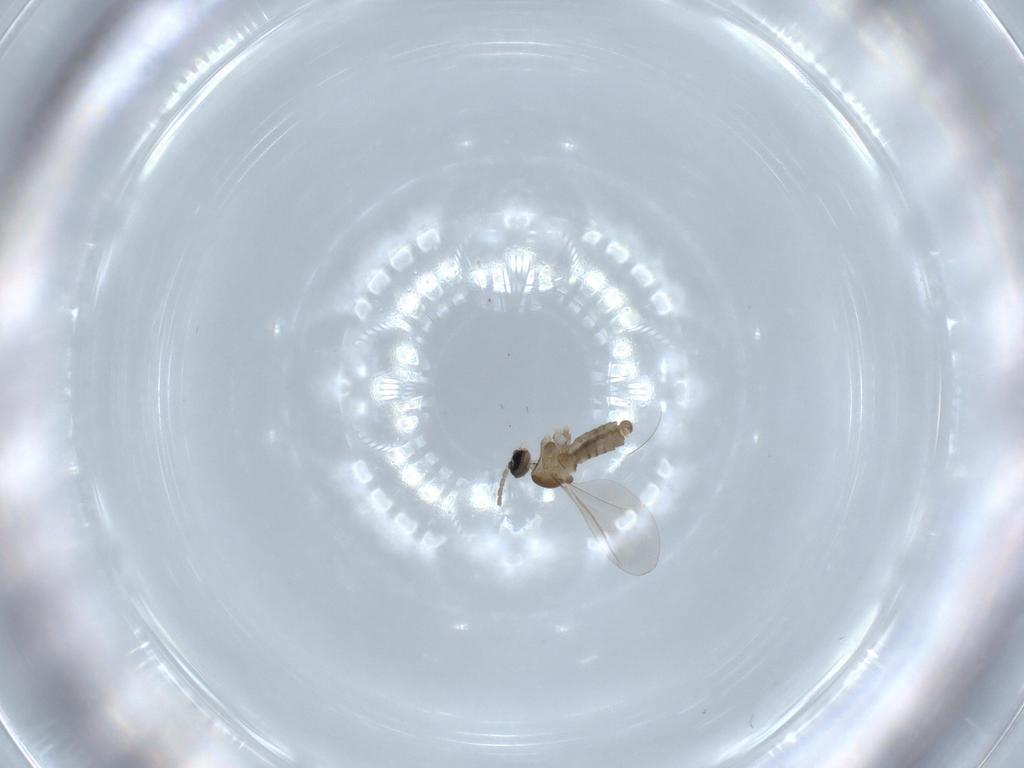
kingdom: Animalia
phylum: Arthropoda
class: Insecta
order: Diptera
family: Cecidomyiidae
